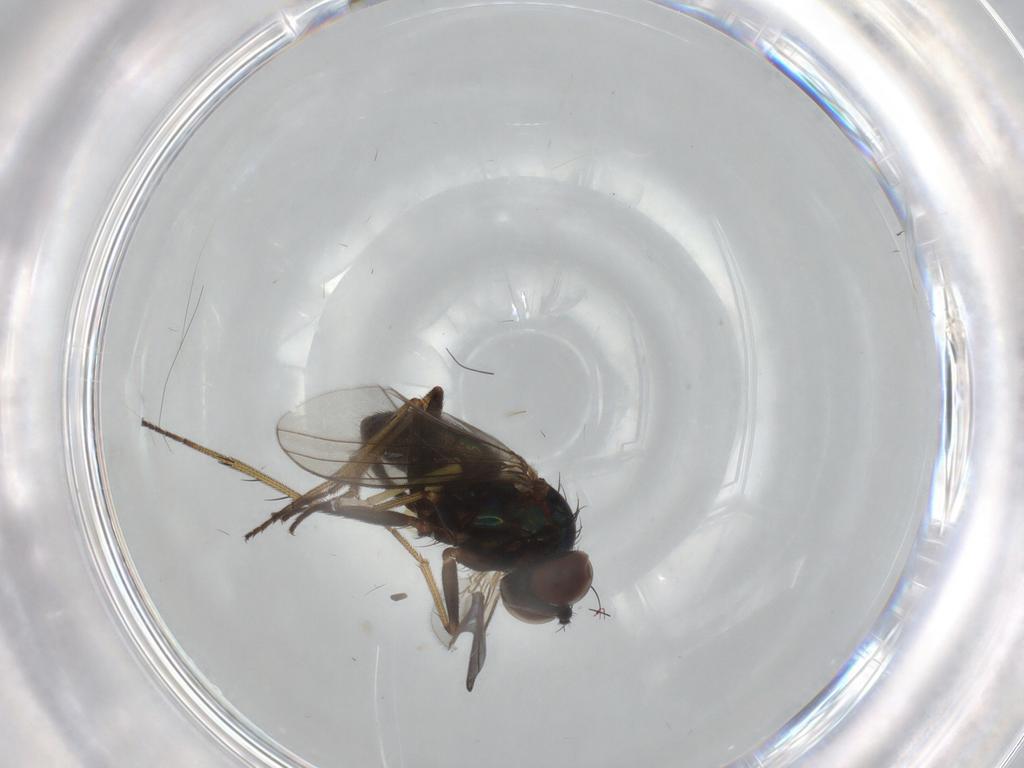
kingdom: Animalia
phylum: Arthropoda
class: Insecta
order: Diptera
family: Dolichopodidae
